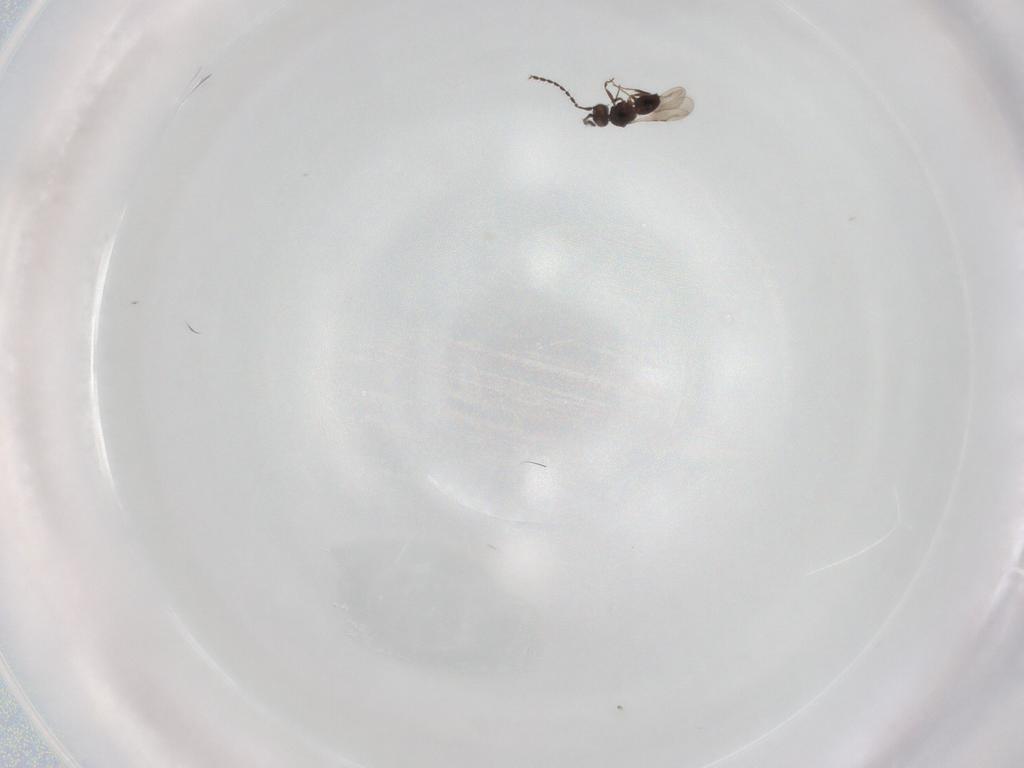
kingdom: Animalia
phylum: Arthropoda
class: Insecta
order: Hymenoptera
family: Ceraphronidae
